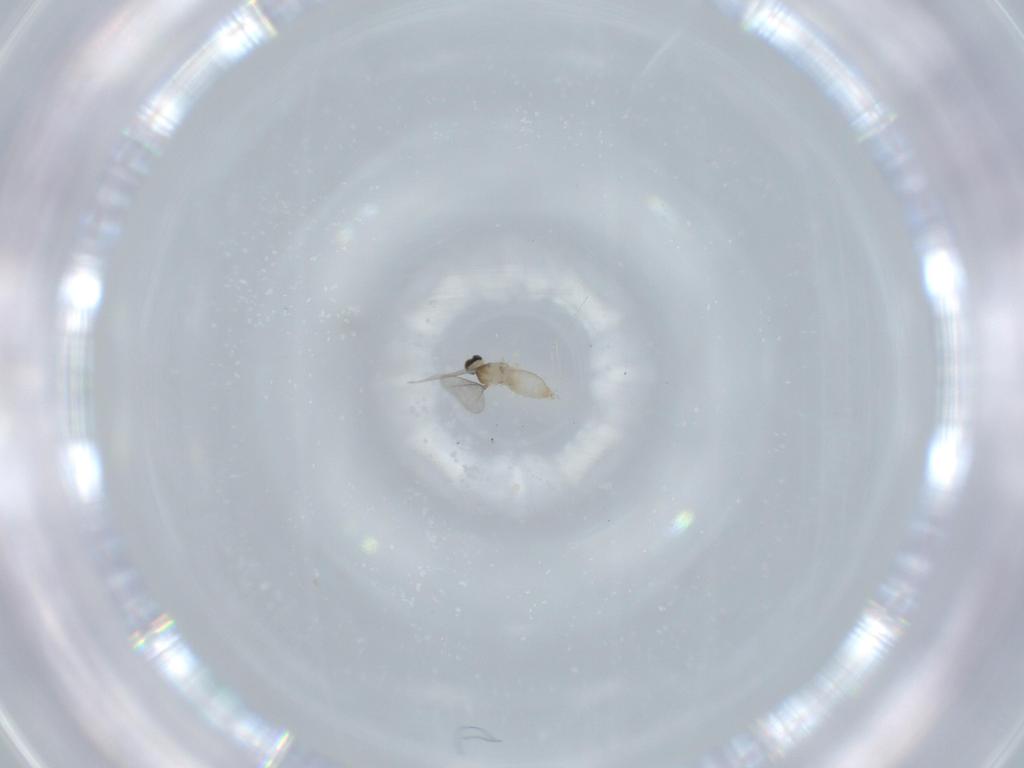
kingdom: Animalia
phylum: Arthropoda
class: Insecta
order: Diptera
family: Cecidomyiidae
